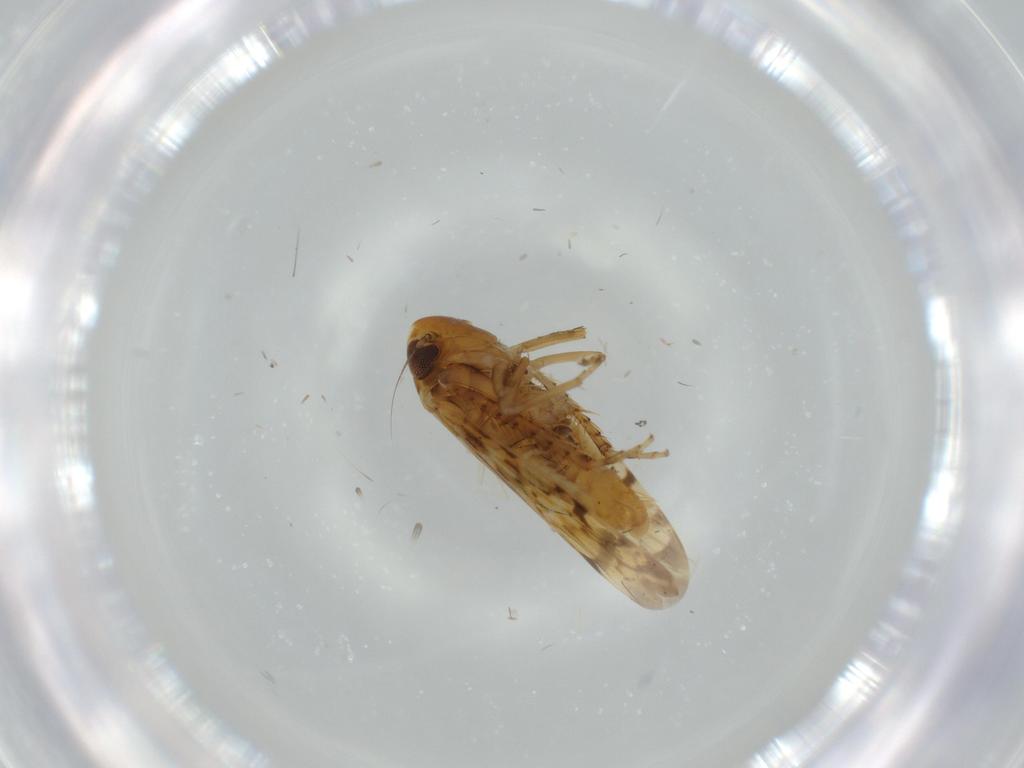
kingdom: Animalia
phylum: Arthropoda
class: Insecta
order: Hemiptera
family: Cicadellidae
